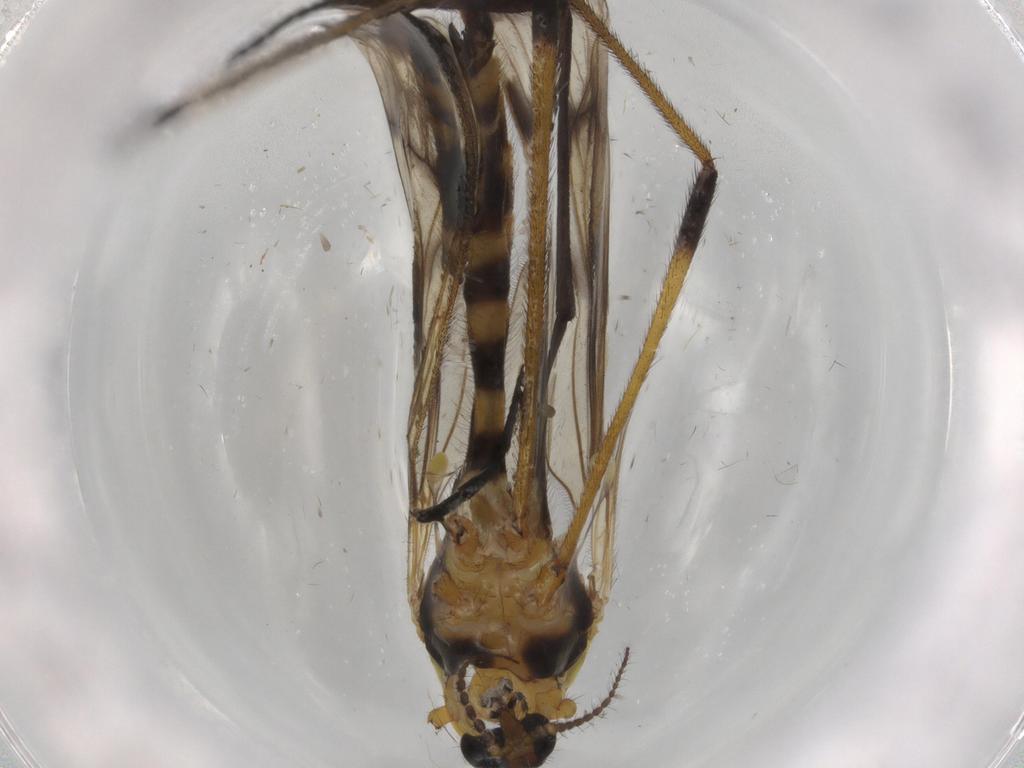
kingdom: Animalia
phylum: Arthropoda
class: Insecta
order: Diptera
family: Limoniidae
